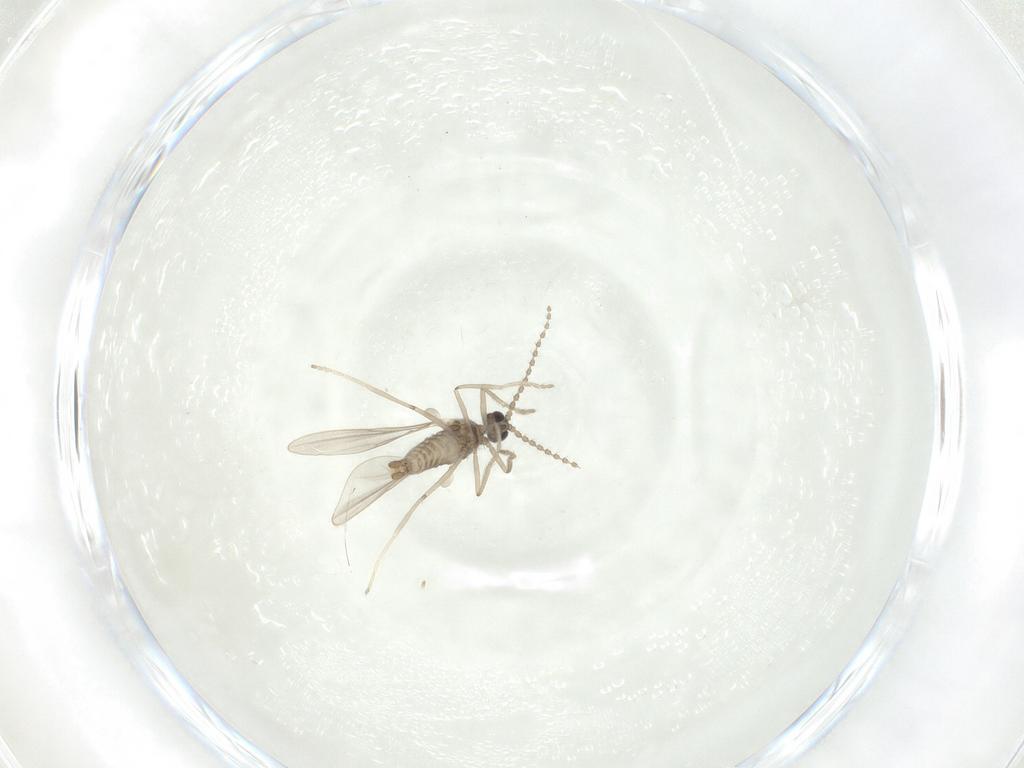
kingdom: Animalia
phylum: Arthropoda
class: Insecta
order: Diptera
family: Cecidomyiidae
